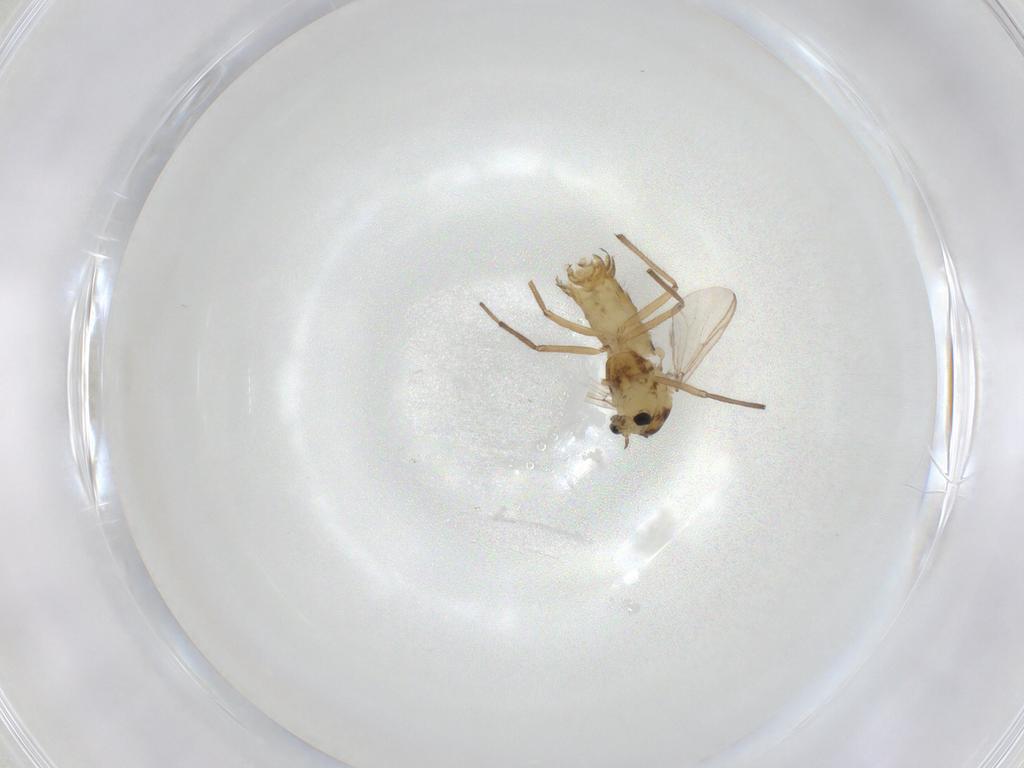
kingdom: Animalia
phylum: Arthropoda
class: Insecta
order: Diptera
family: Chironomidae
